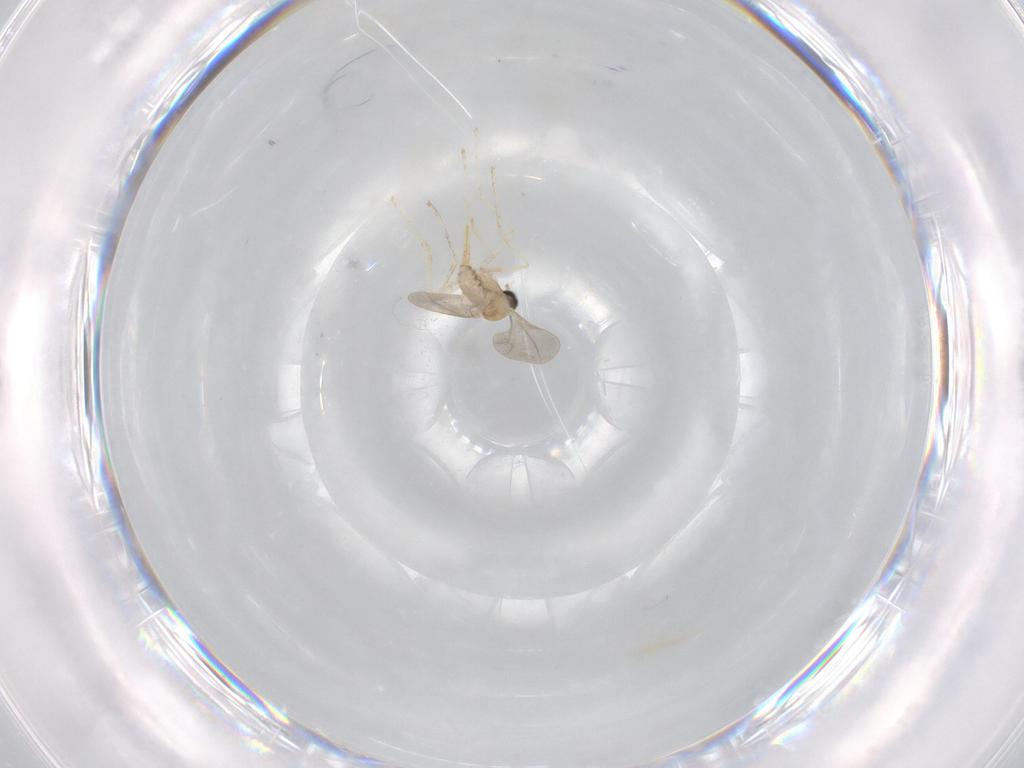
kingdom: Animalia
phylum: Arthropoda
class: Insecta
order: Diptera
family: Cecidomyiidae
